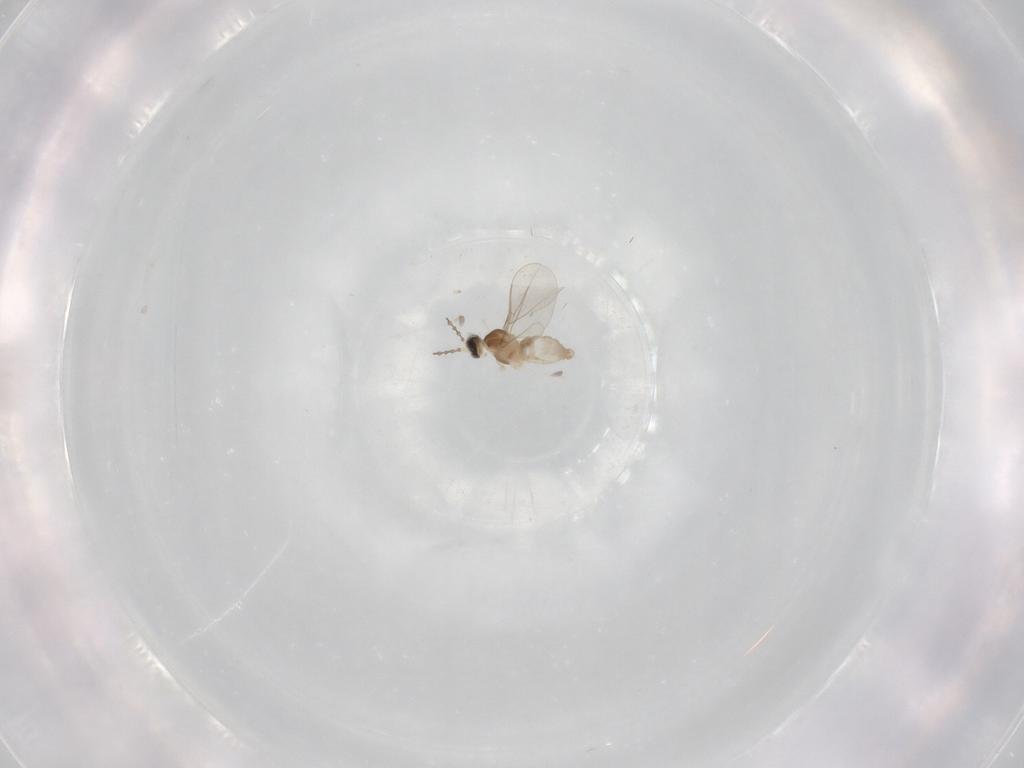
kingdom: Animalia
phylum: Arthropoda
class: Insecta
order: Diptera
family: Cecidomyiidae
